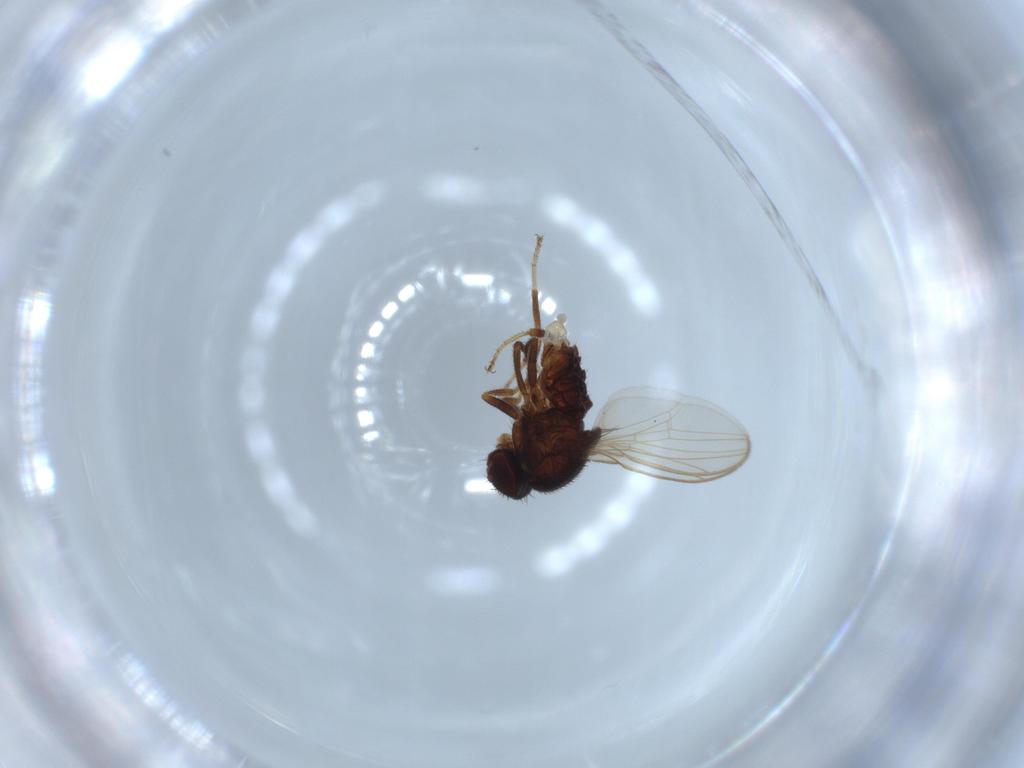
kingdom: Animalia
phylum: Arthropoda
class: Insecta
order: Diptera
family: Drosophilidae
